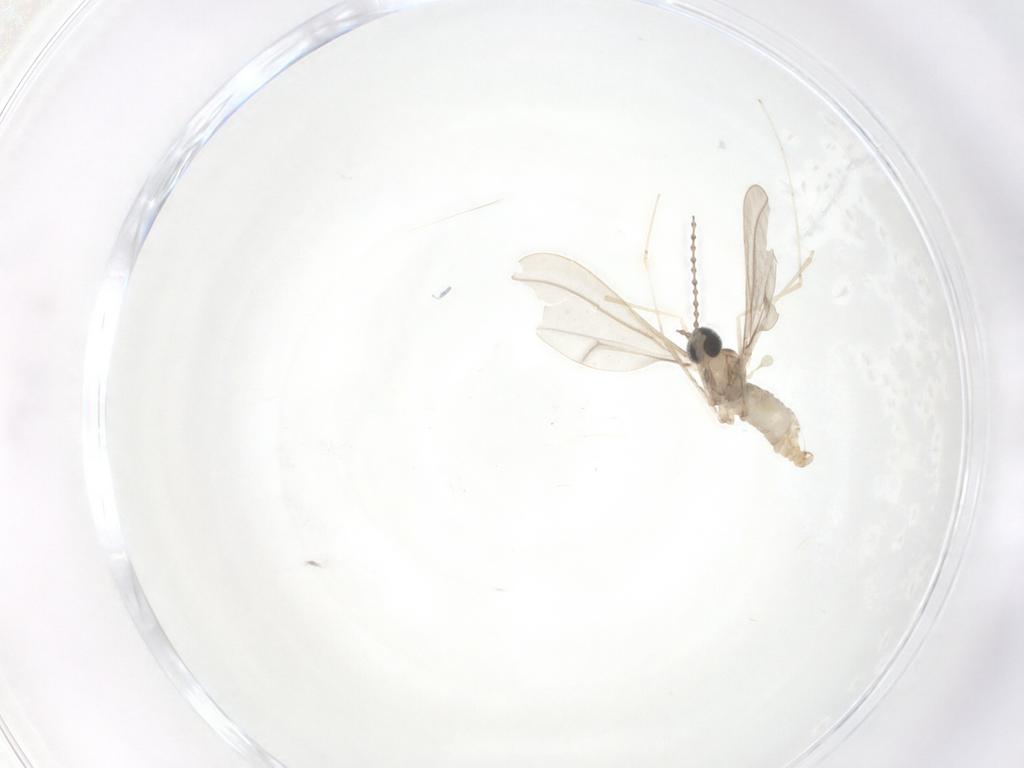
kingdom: Animalia
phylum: Arthropoda
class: Insecta
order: Diptera
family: Cecidomyiidae
